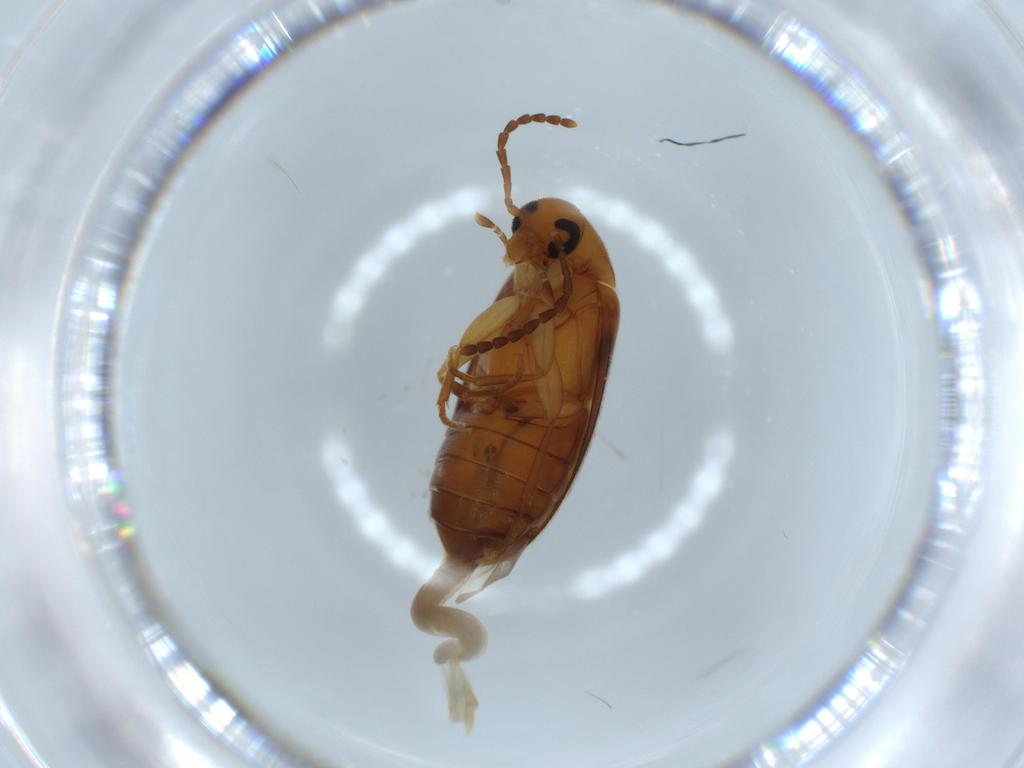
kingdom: Animalia
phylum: Arthropoda
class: Insecta
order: Coleoptera
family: Scraptiidae
